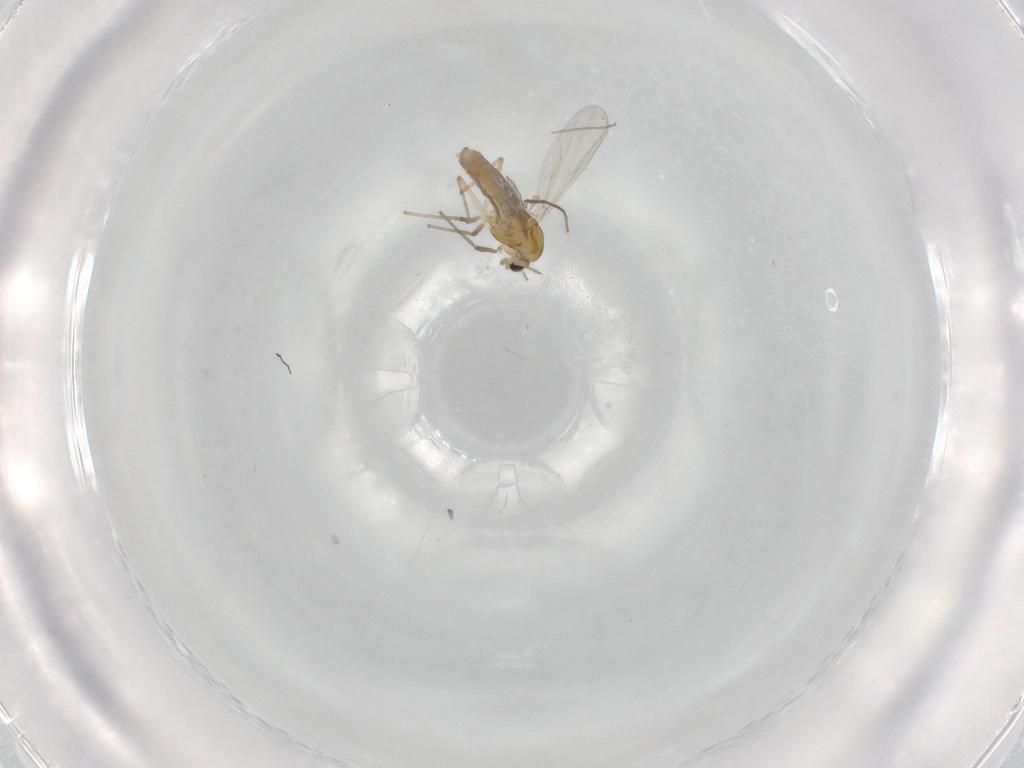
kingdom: Animalia
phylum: Arthropoda
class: Insecta
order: Diptera
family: Chironomidae
